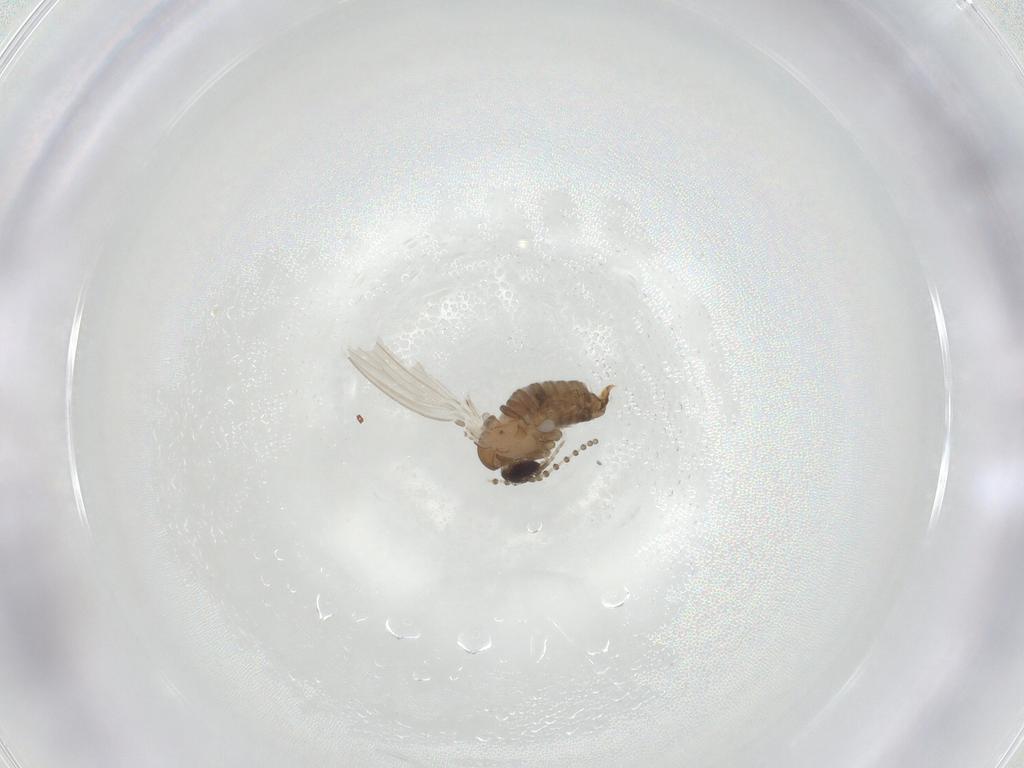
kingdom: Animalia
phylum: Arthropoda
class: Insecta
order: Diptera
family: Psychodidae
